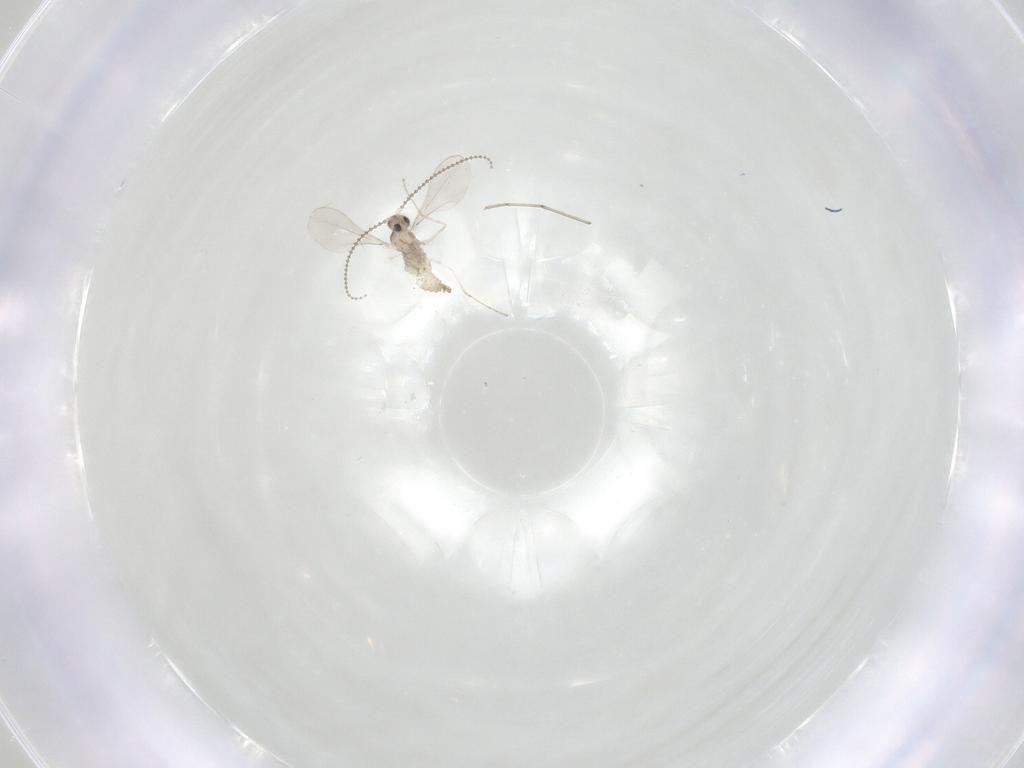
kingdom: Animalia
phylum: Arthropoda
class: Insecta
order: Diptera
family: Cecidomyiidae
